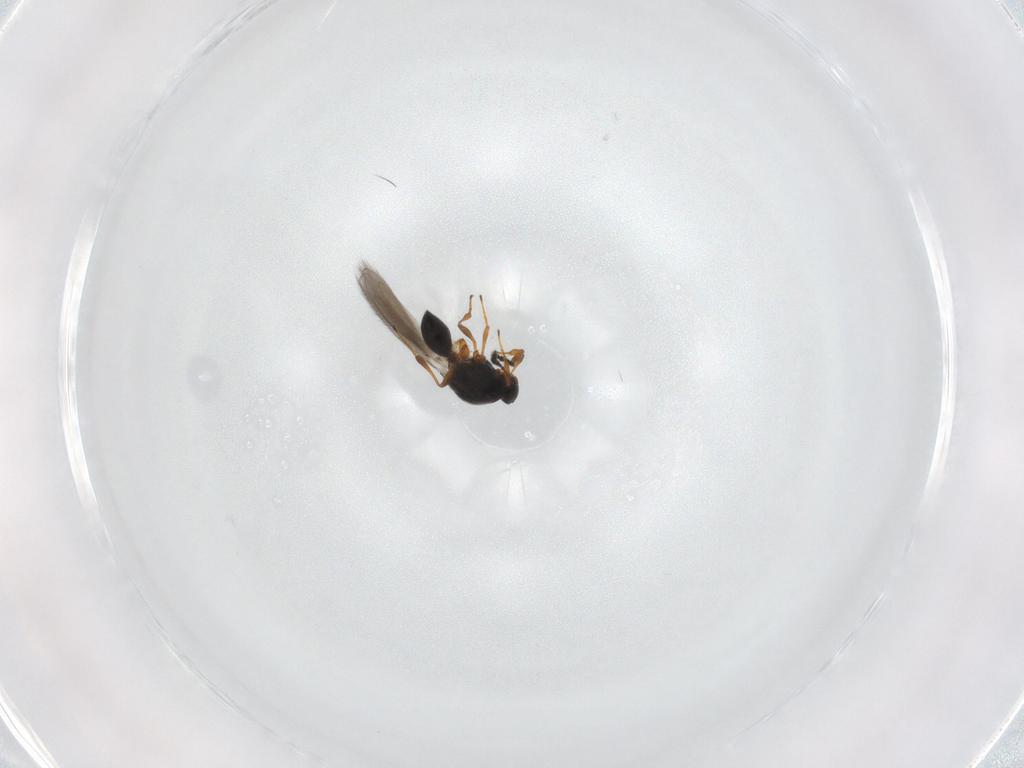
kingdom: Animalia
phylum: Arthropoda
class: Insecta
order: Hymenoptera
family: Platygastridae
